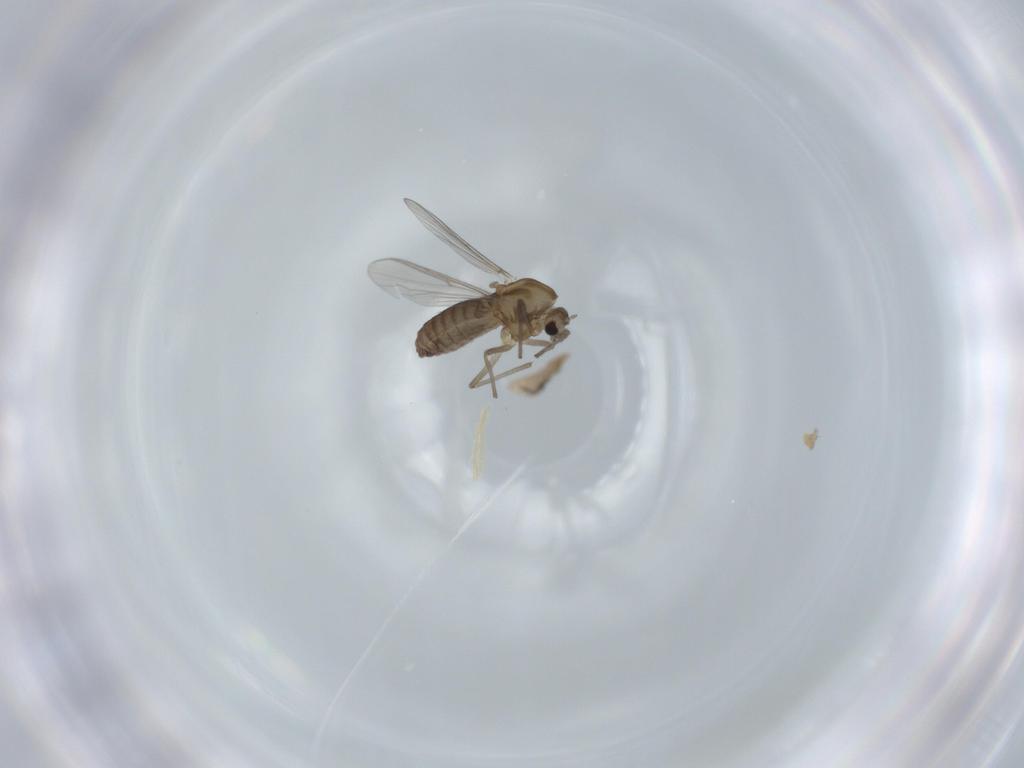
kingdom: Animalia
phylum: Arthropoda
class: Insecta
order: Diptera
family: Chironomidae
